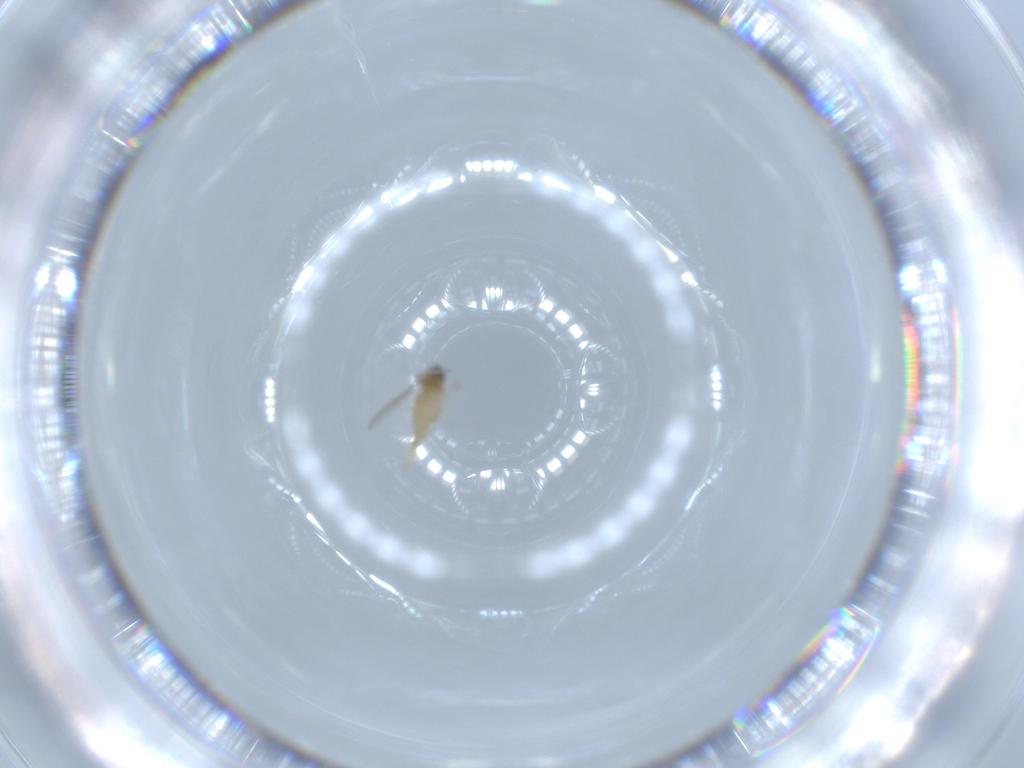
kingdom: Animalia
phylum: Arthropoda
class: Insecta
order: Diptera
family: Cecidomyiidae
